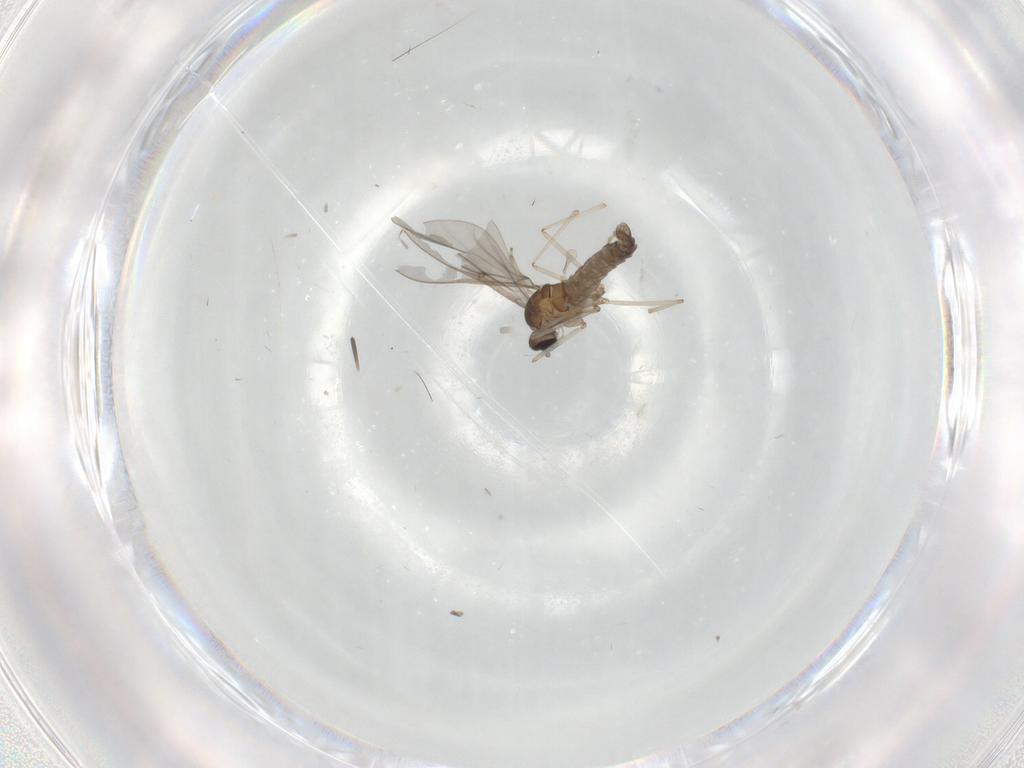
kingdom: Animalia
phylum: Arthropoda
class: Insecta
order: Diptera
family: Cecidomyiidae
